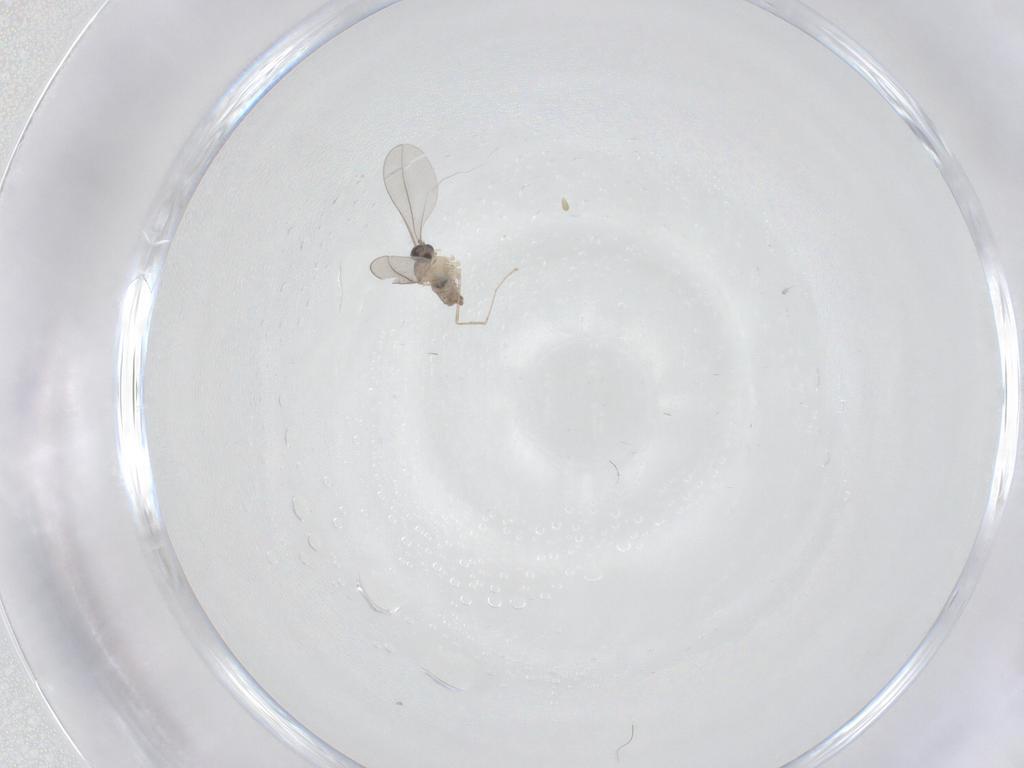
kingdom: Animalia
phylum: Arthropoda
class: Insecta
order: Diptera
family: Cecidomyiidae
